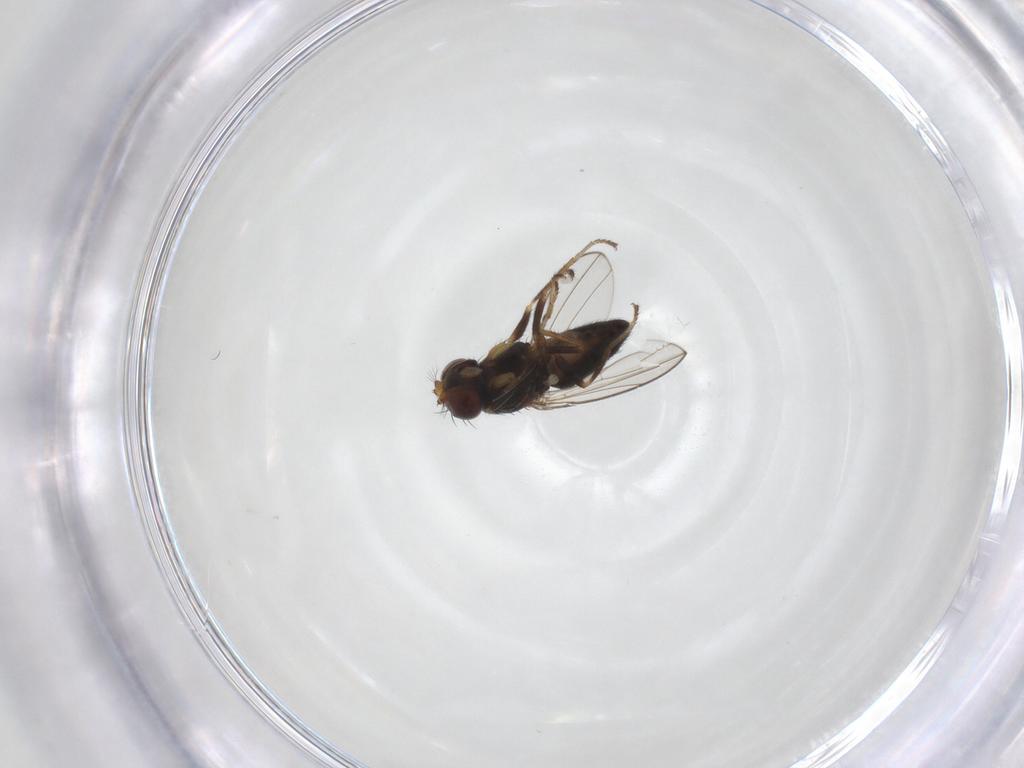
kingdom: Animalia
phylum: Arthropoda
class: Insecta
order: Diptera
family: Ephydridae
